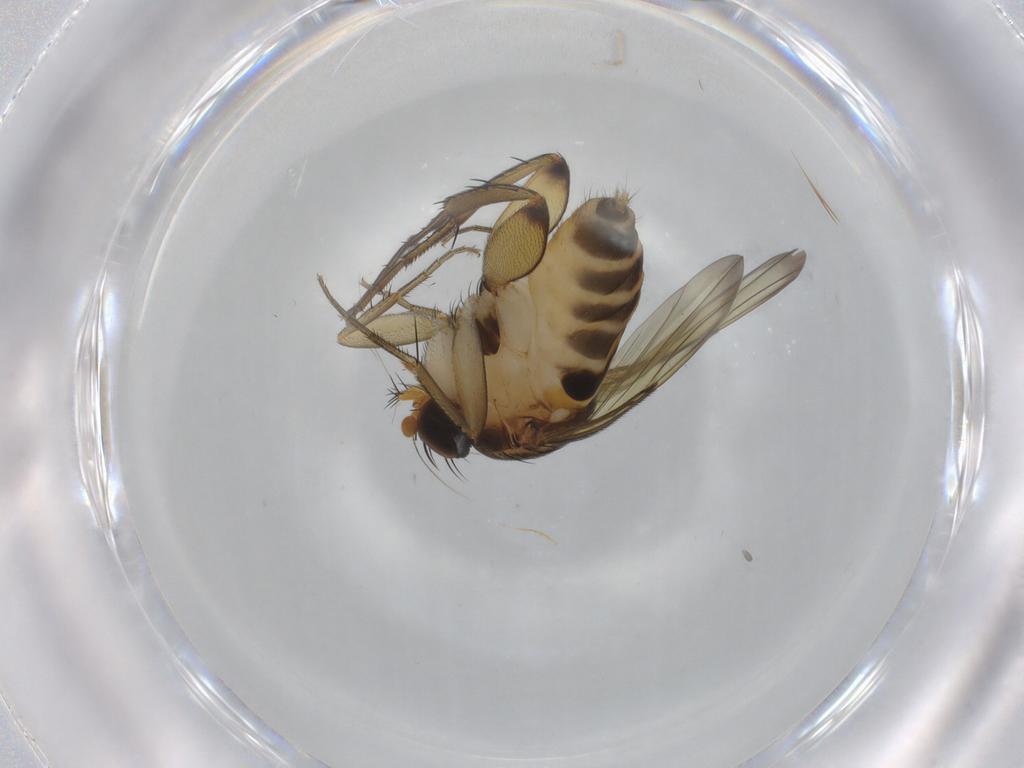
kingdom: Animalia
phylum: Arthropoda
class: Insecta
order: Diptera
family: Phoridae
